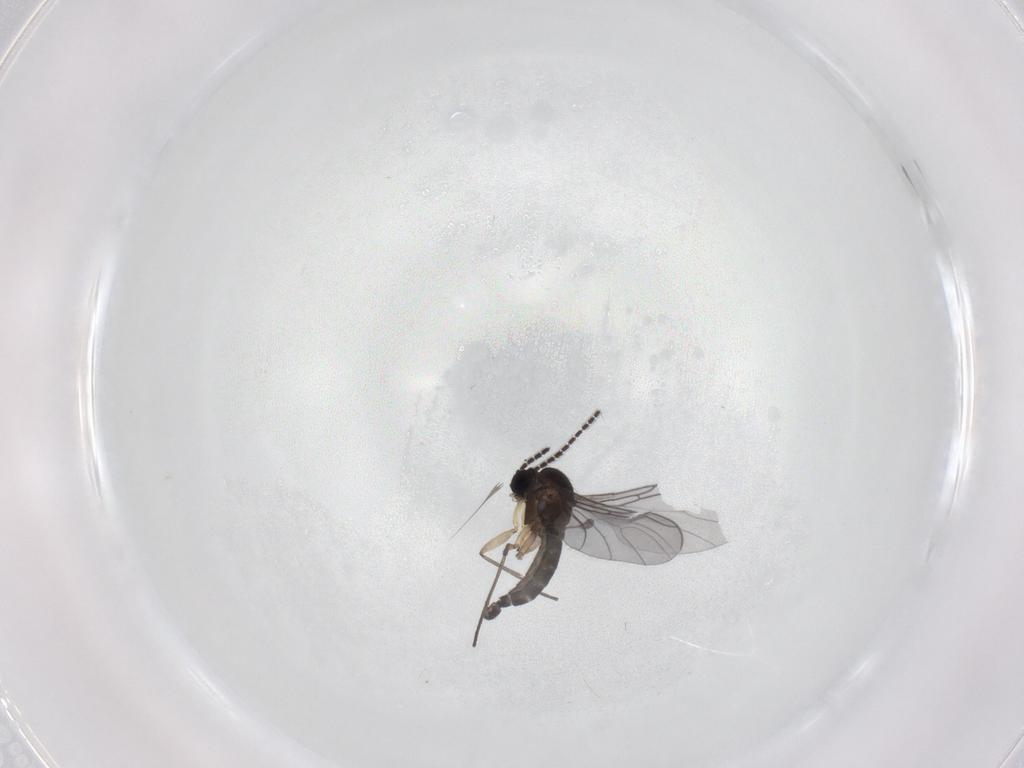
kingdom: Animalia
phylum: Arthropoda
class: Insecta
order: Diptera
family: Sciaridae
